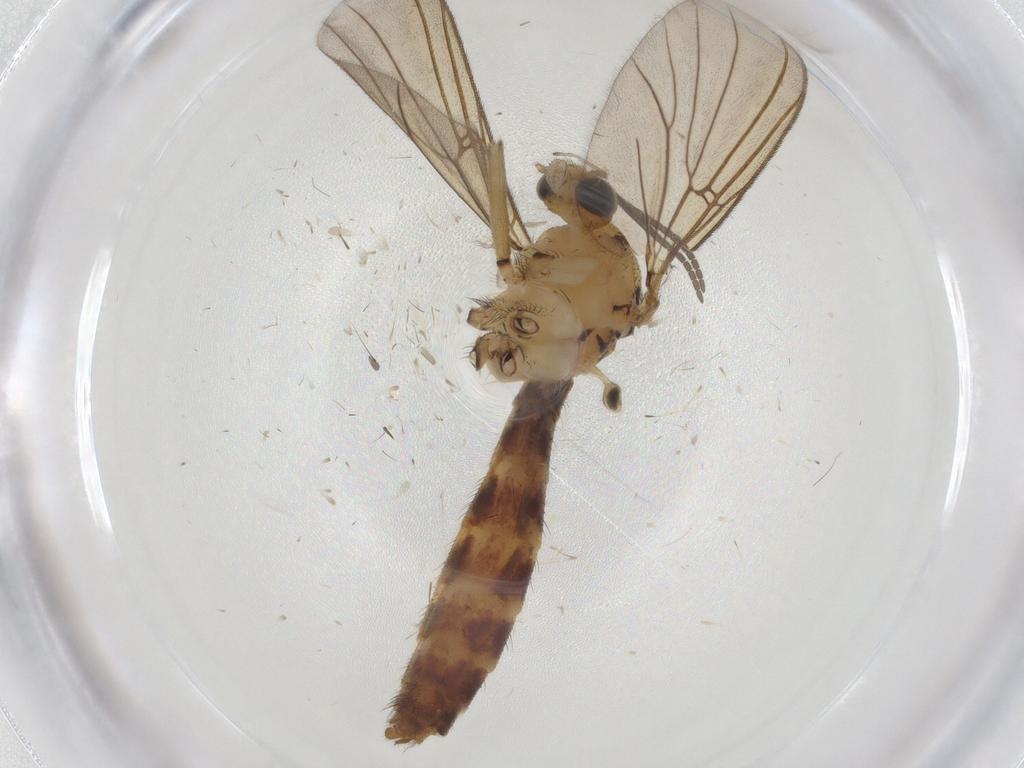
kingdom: Animalia
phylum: Arthropoda
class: Insecta
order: Diptera
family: Mycetophilidae
